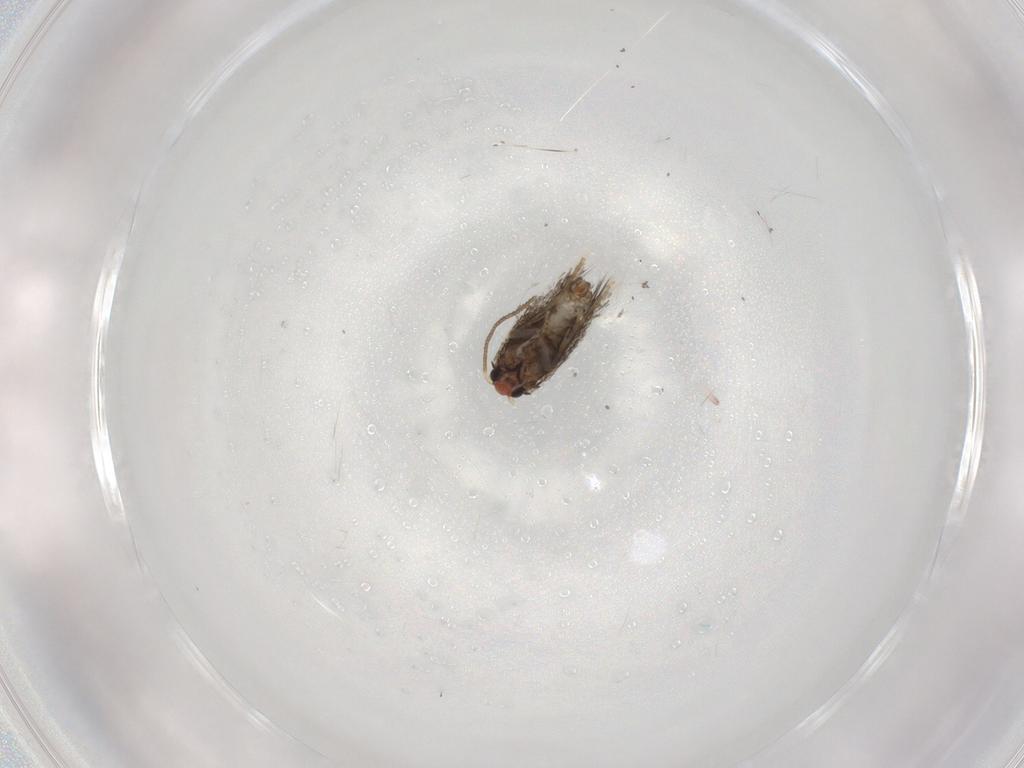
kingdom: Animalia
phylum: Arthropoda
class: Insecta
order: Lepidoptera
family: Nepticulidae
